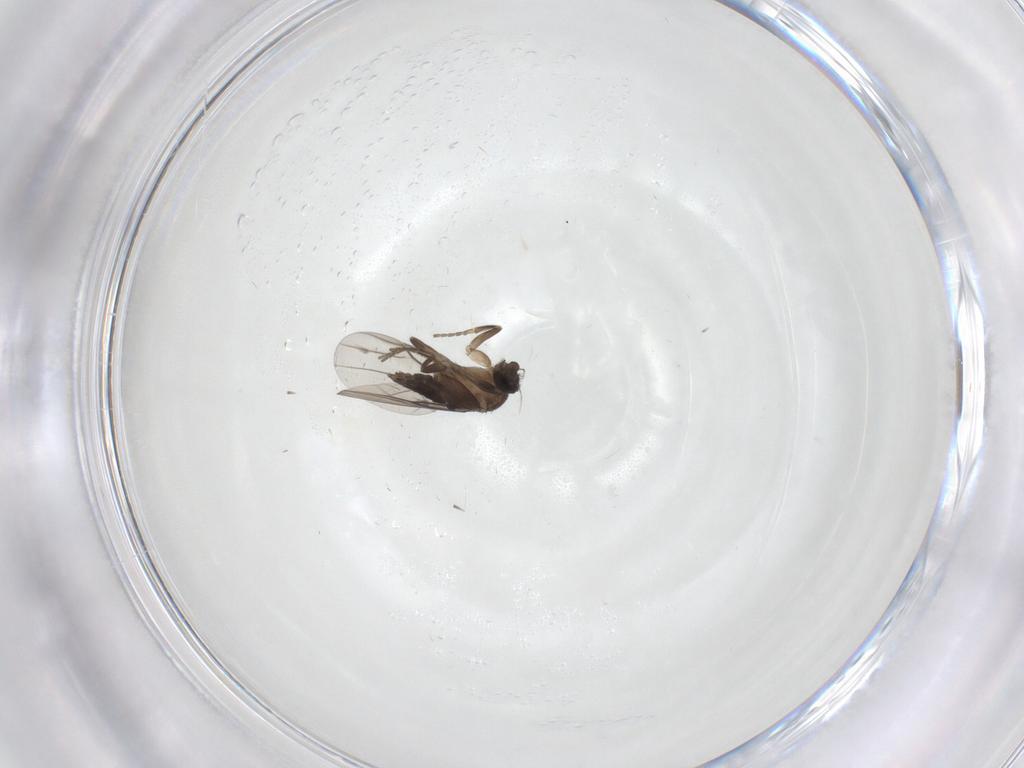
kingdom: Animalia
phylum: Arthropoda
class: Insecta
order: Diptera
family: Phoridae
